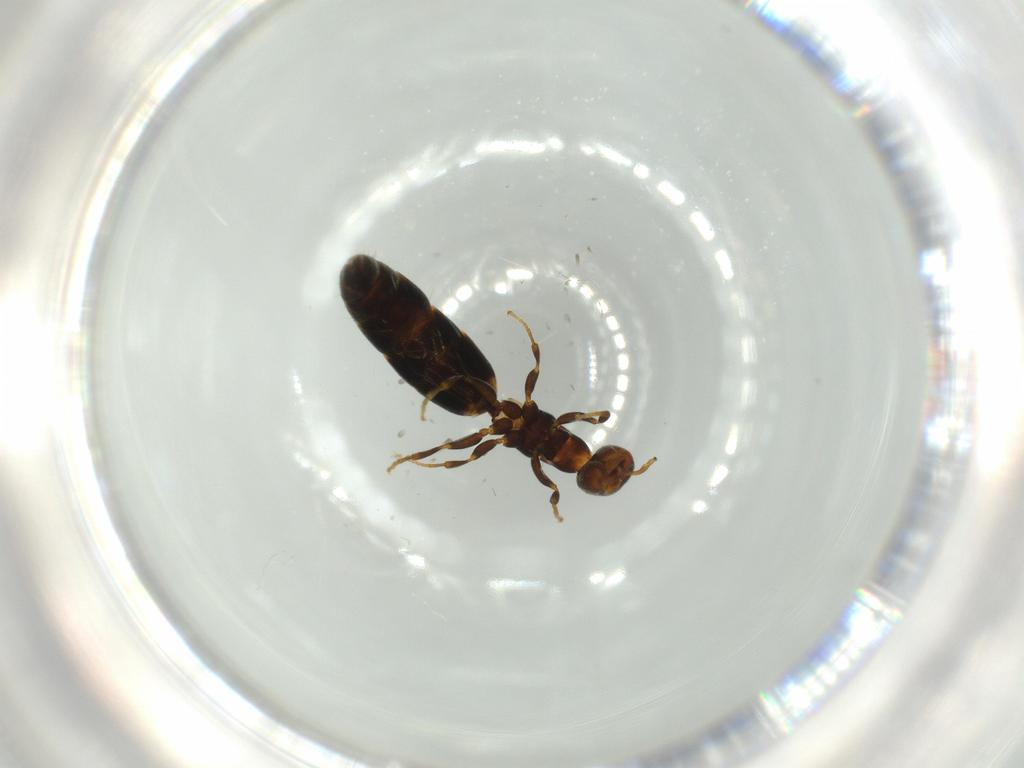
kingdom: Animalia
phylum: Arthropoda
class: Insecta
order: Hymenoptera
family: Bethylidae
